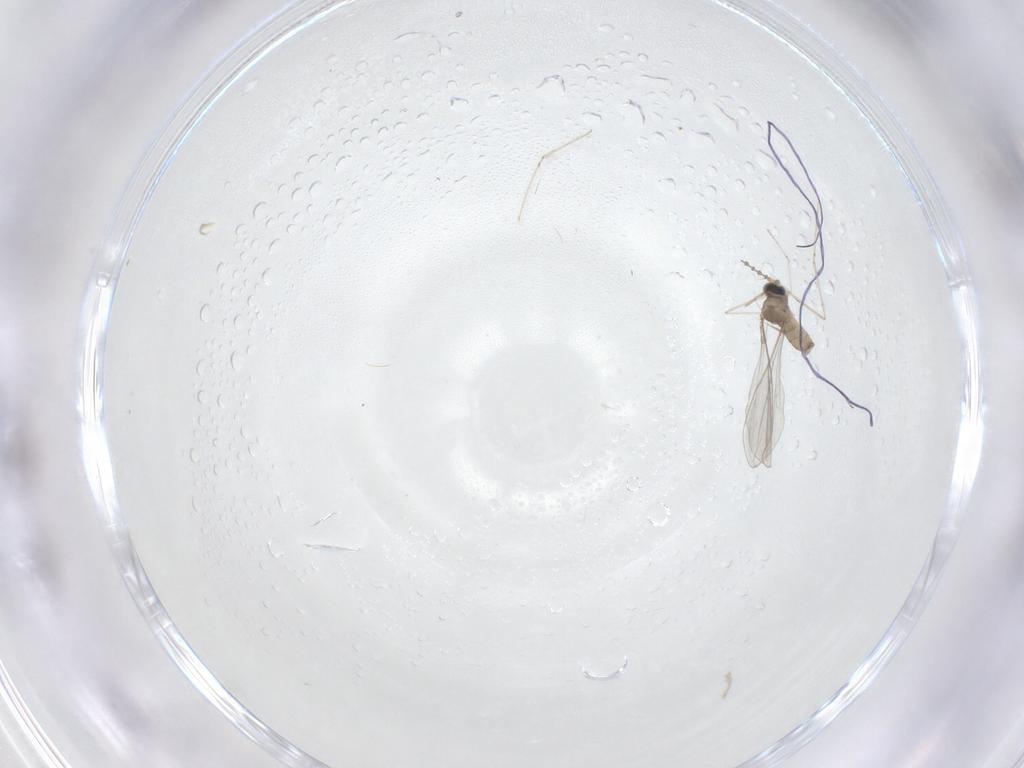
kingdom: Animalia
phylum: Arthropoda
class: Insecta
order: Diptera
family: Cecidomyiidae
